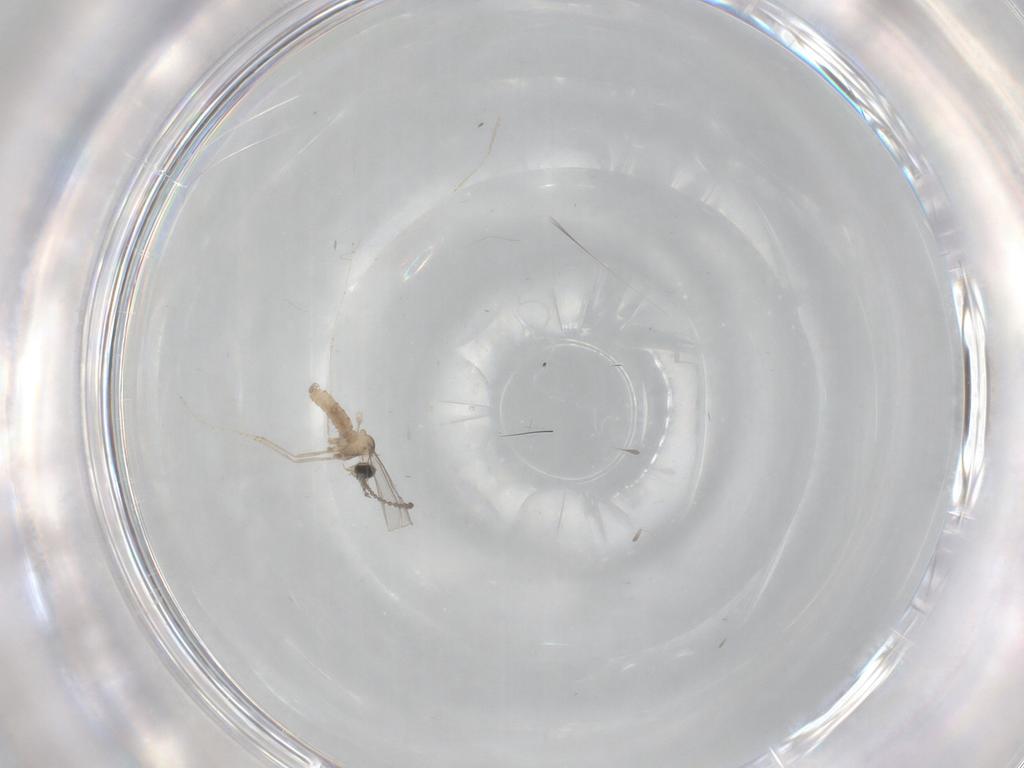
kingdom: Animalia
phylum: Arthropoda
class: Insecta
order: Diptera
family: Cecidomyiidae
